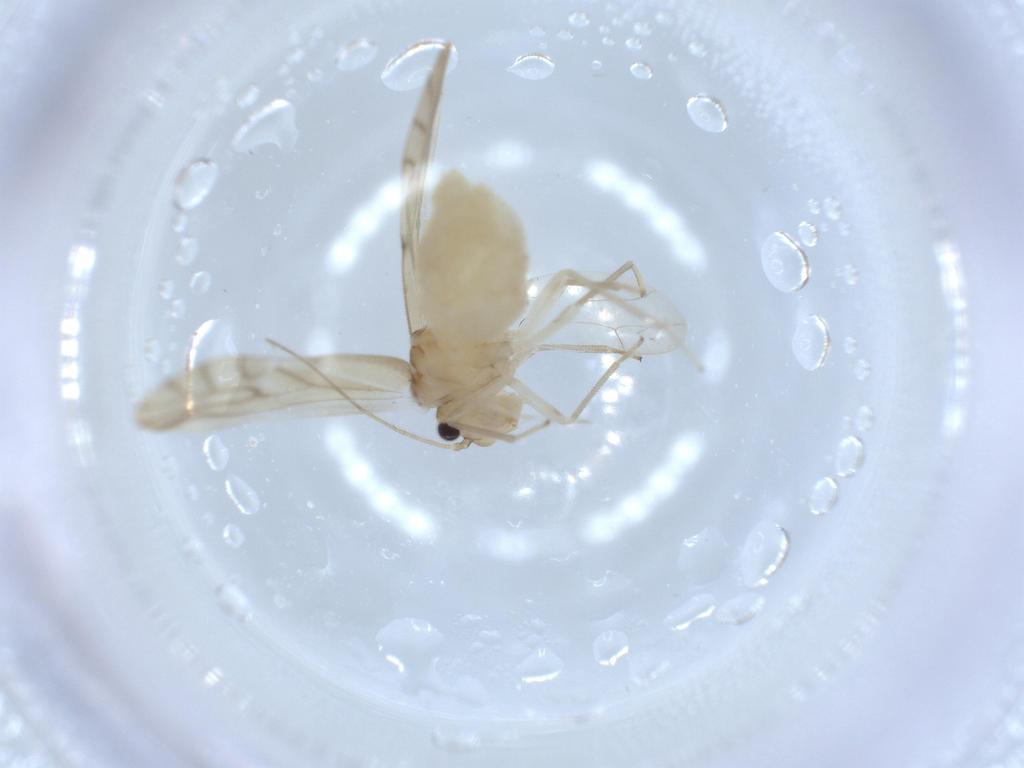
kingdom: Animalia
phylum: Arthropoda
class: Insecta
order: Psocodea
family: Caeciliusidae
